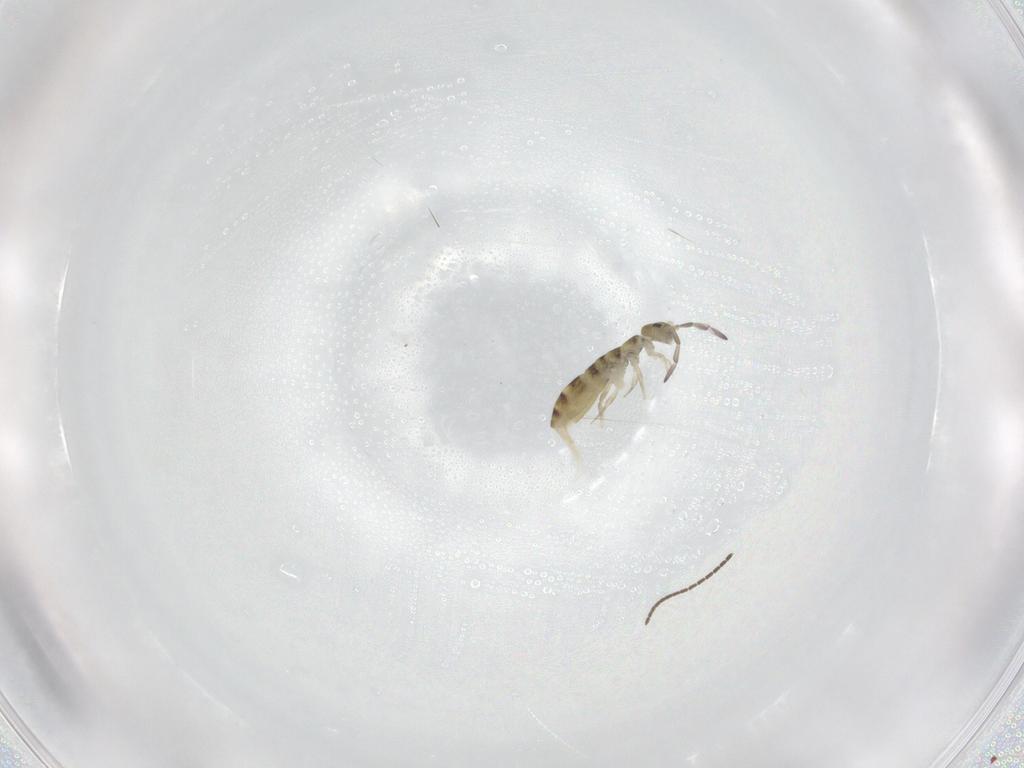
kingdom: Animalia
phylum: Arthropoda
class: Collembola
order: Entomobryomorpha
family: Isotomidae
